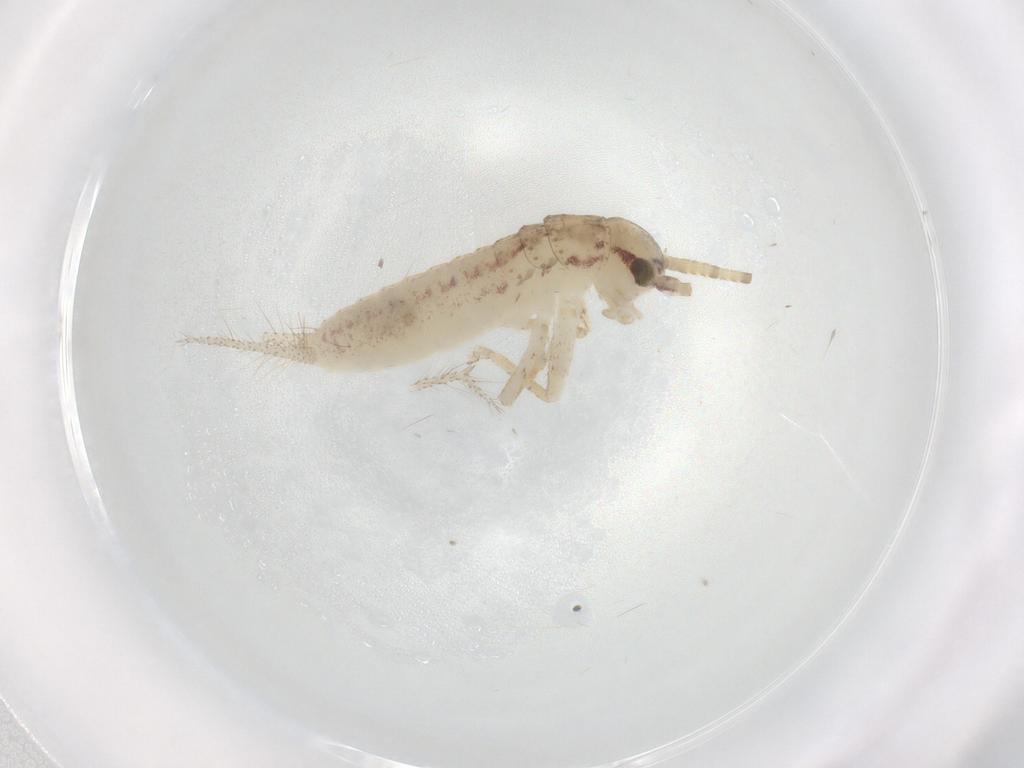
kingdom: Animalia
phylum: Arthropoda
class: Insecta
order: Orthoptera
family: Gryllidae
